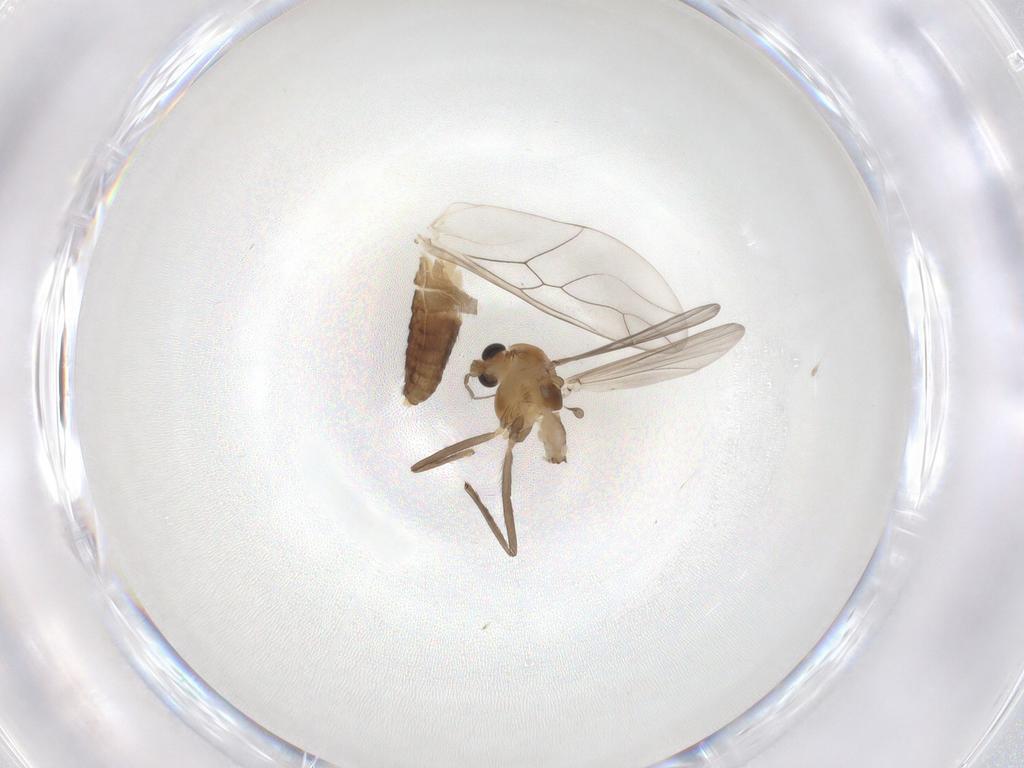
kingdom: Animalia
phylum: Arthropoda
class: Insecta
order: Diptera
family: Chironomidae
